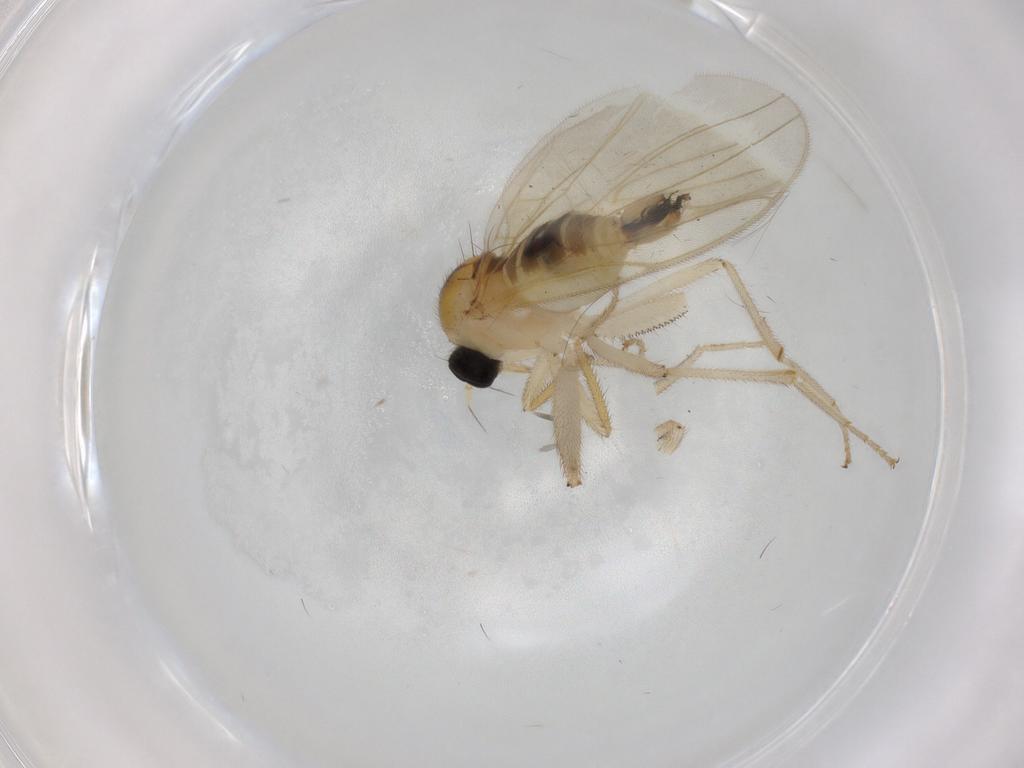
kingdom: Animalia
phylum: Arthropoda
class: Insecta
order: Diptera
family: Hybotidae
